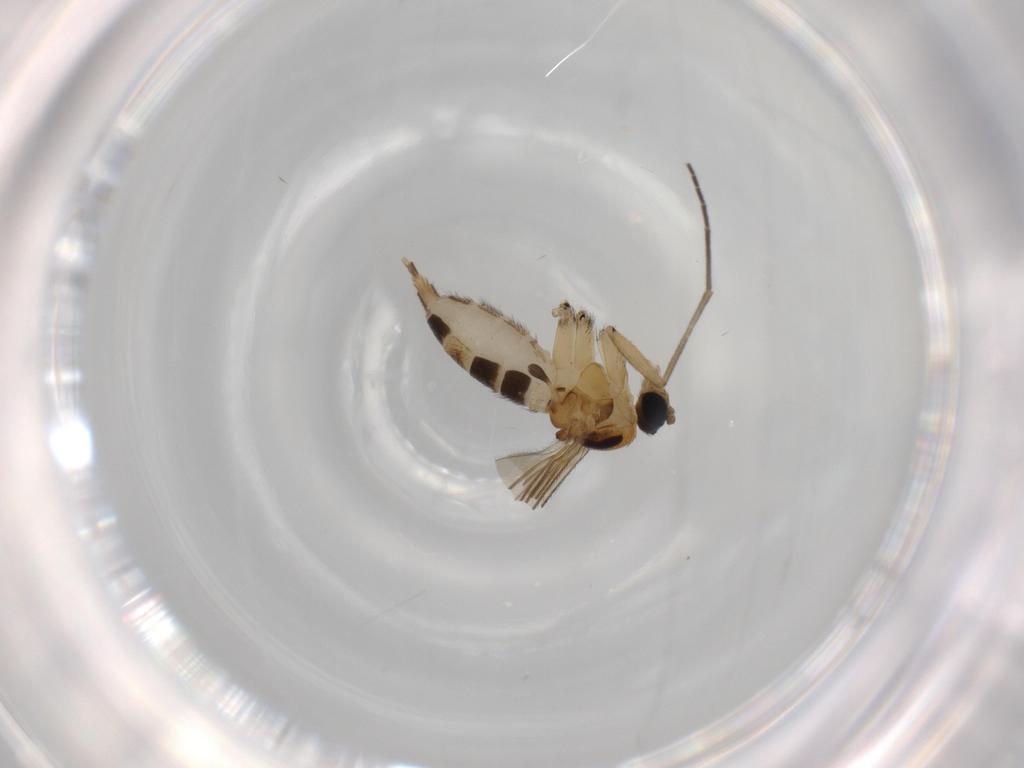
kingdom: Animalia
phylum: Arthropoda
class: Insecta
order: Diptera
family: Sciaridae
